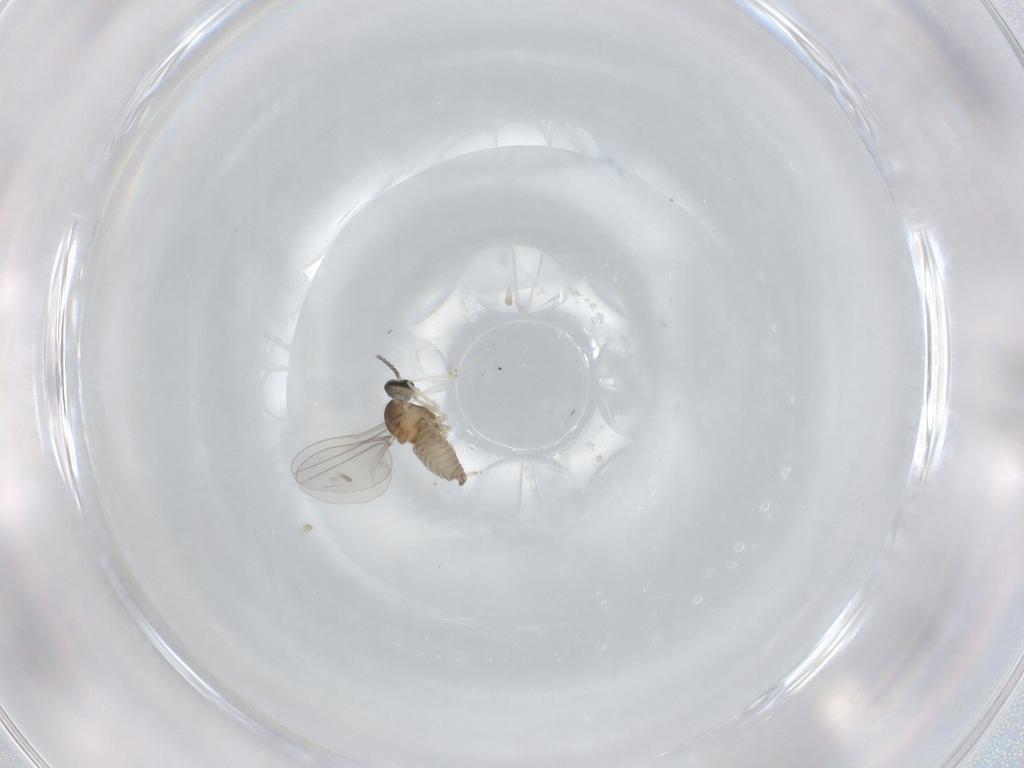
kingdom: Animalia
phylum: Arthropoda
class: Insecta
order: Diptera
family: Cecidomyiidae
